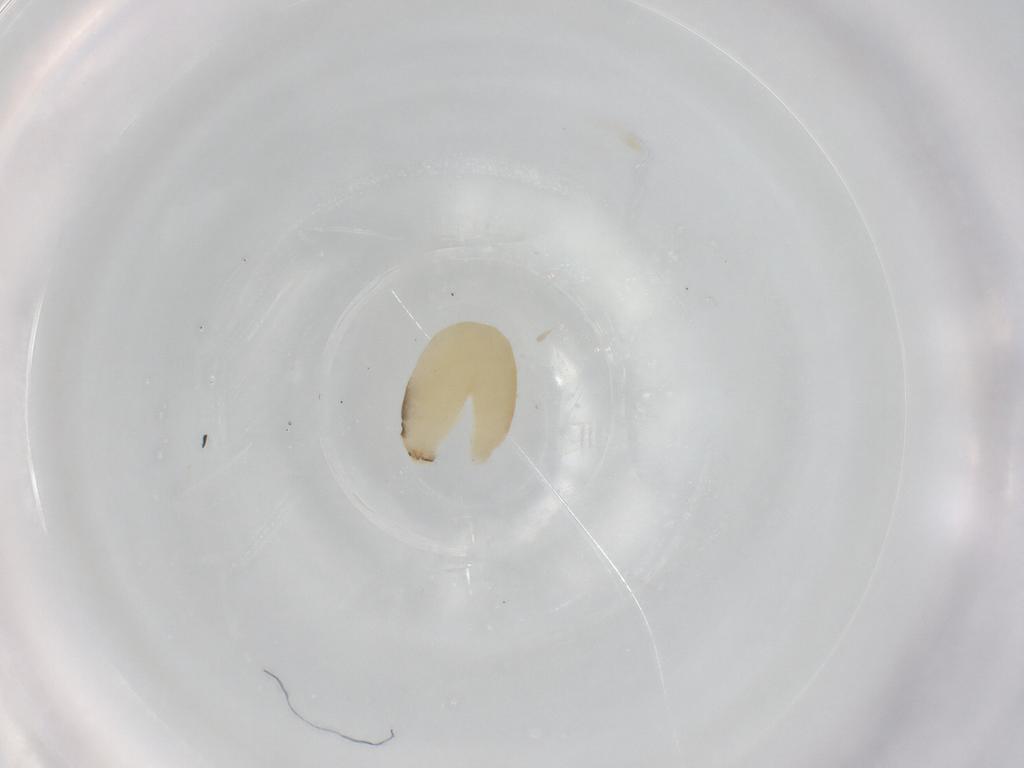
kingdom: Animalia
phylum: Arthropoda
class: Insecta
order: Hymenoptera
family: Dryinidae
